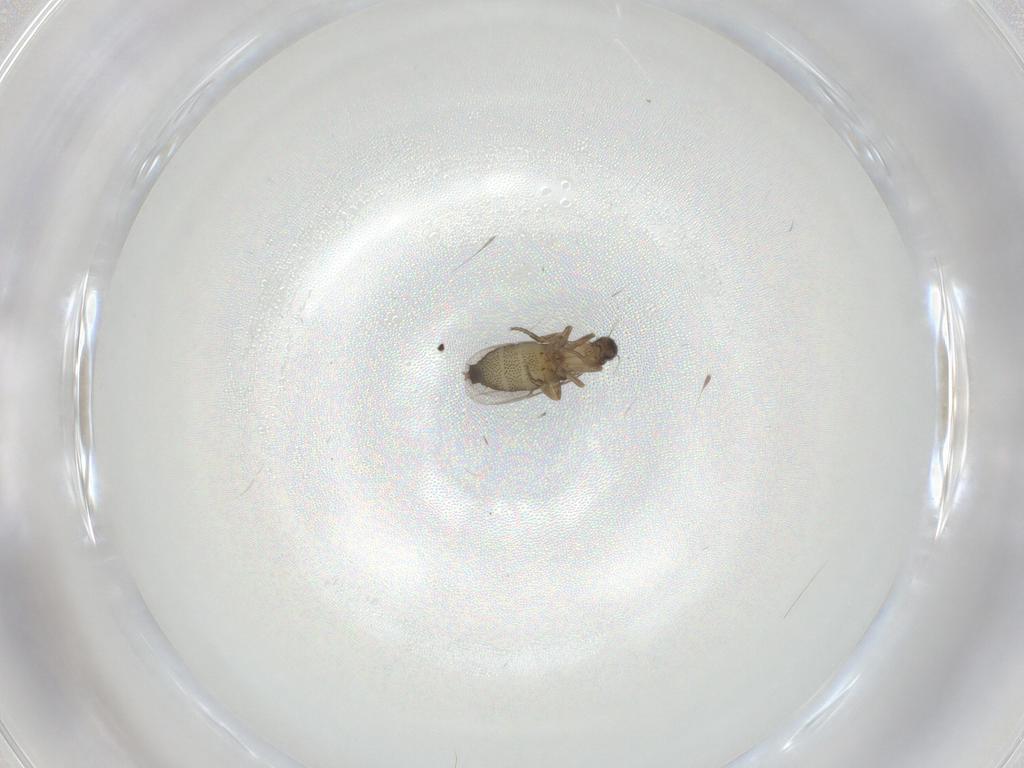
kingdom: Animalia
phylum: Arthropoda
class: Insecta
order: Diptera
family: Phoridae
